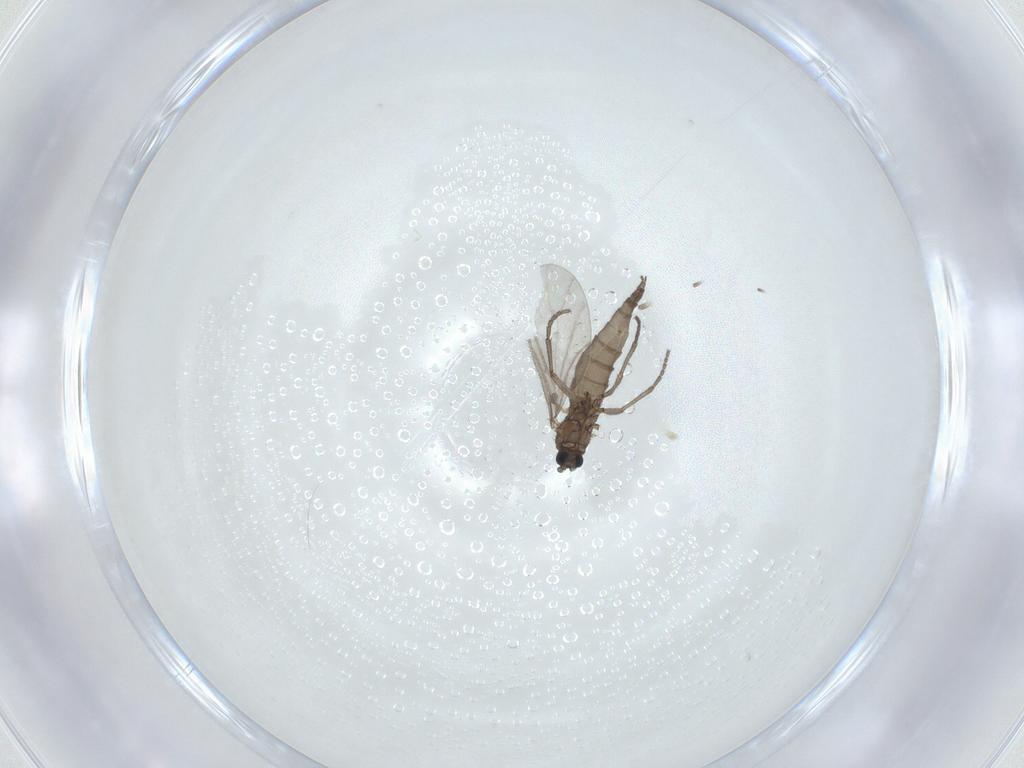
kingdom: Animalia
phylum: Arthropoda
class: Insecta
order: Diptera
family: Sciaridae
